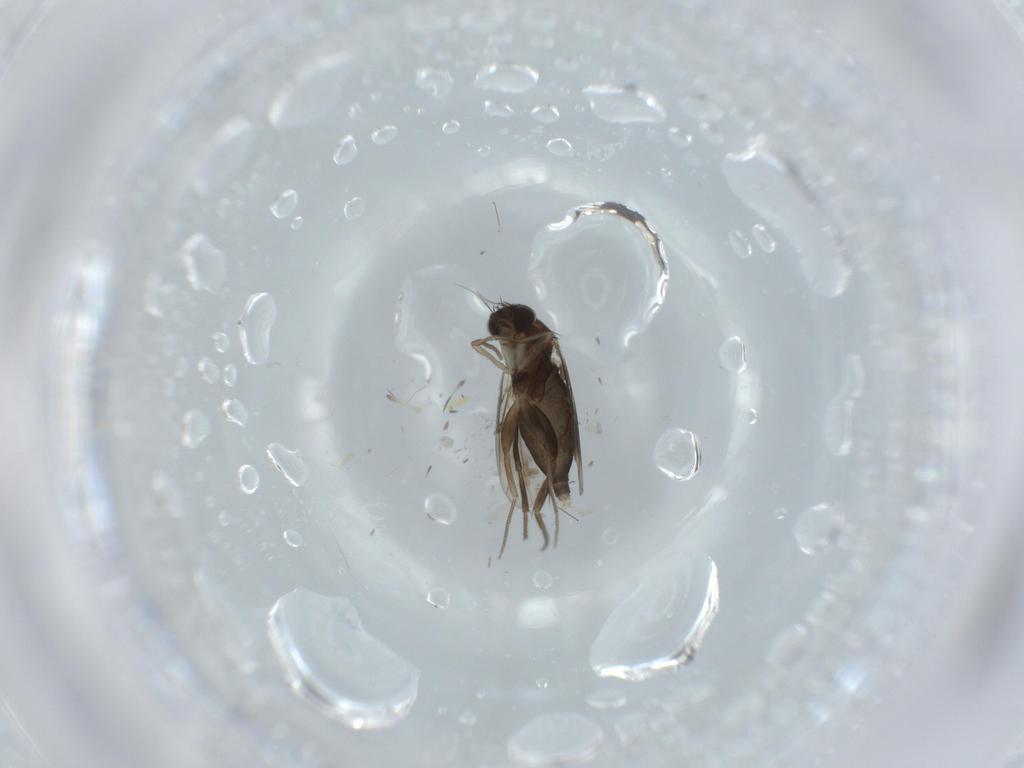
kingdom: Animalia
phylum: Arthropoda
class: Insecta
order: Diptera
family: Phoridae
